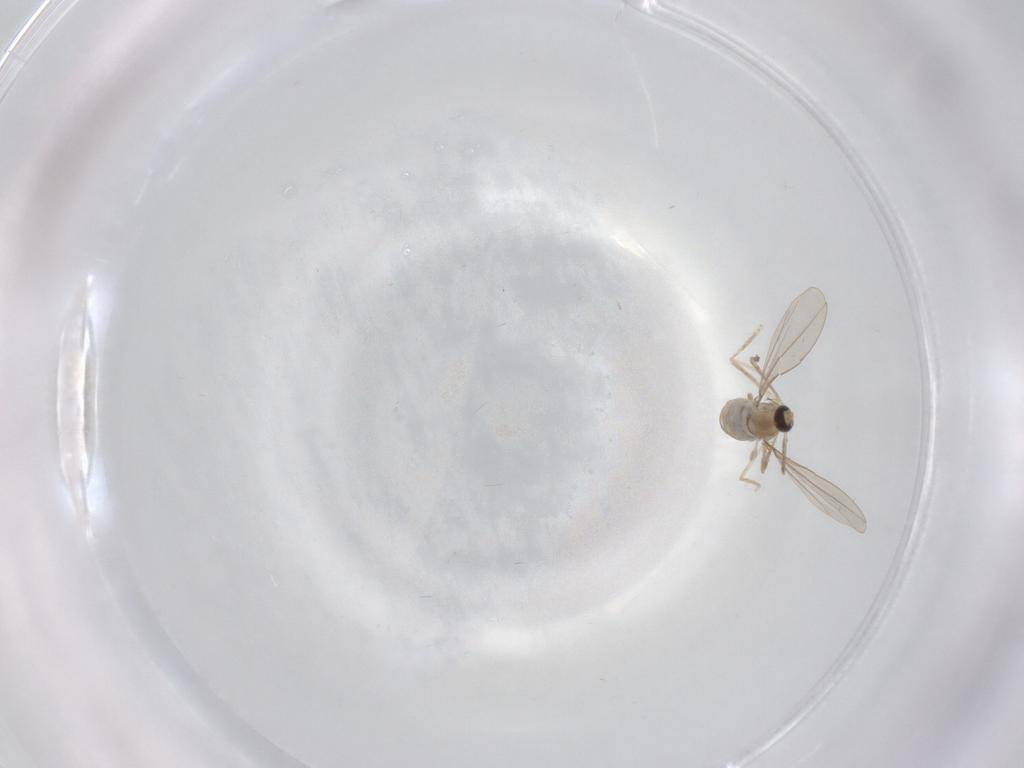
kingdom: Animalia
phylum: Arthropoda
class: Insecta
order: Diptera
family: Cecidomyiidae
